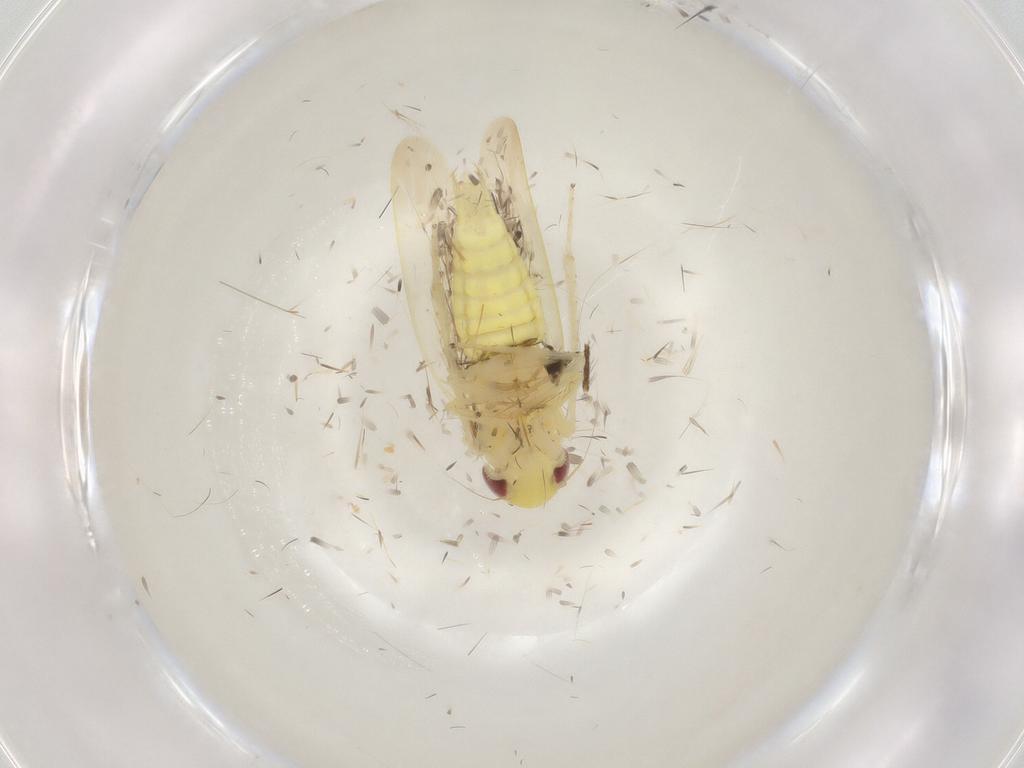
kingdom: Animalia
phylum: Arthropoda
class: Insecta
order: Hemiptera
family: Cicadellidae
